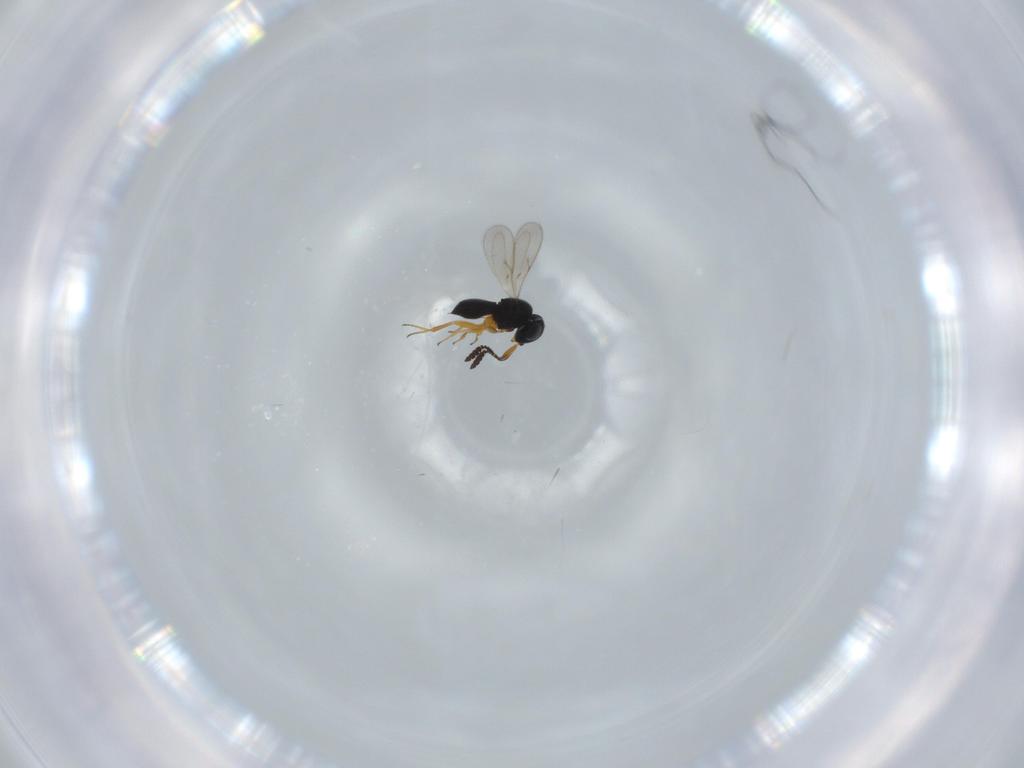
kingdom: Animalia
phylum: Arthropoda
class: Insecta
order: Hymenoptera
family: Scelionidae
